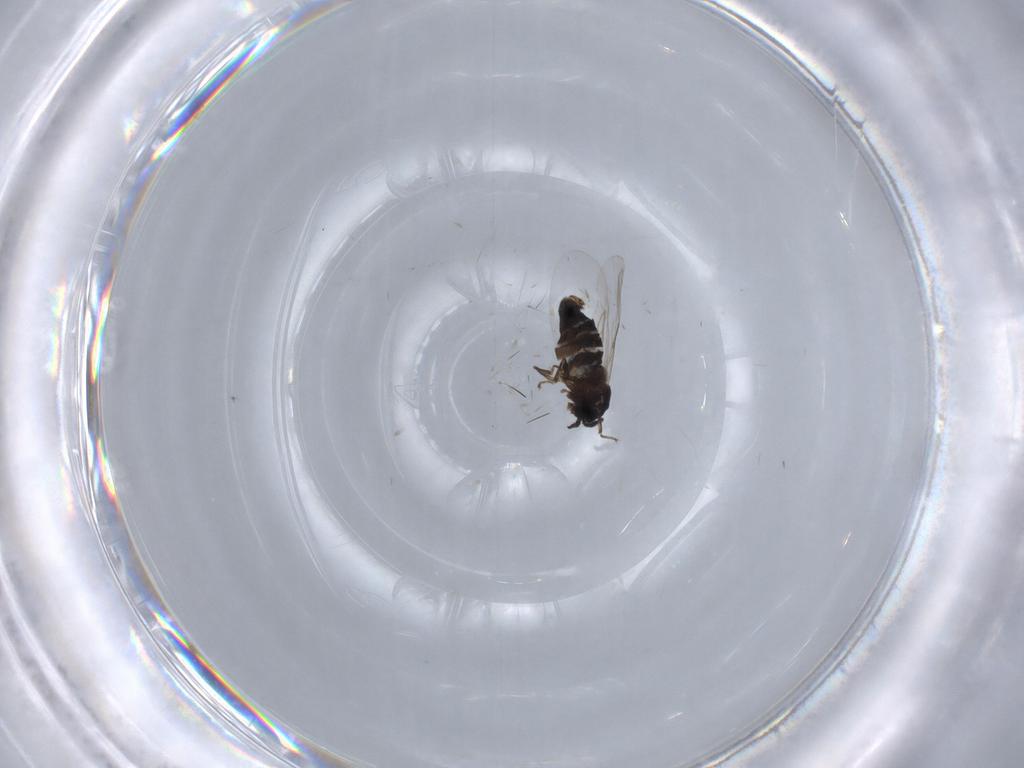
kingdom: Animalia
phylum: Arthropoda
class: Insecta
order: Diptera
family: Scatopsidae
